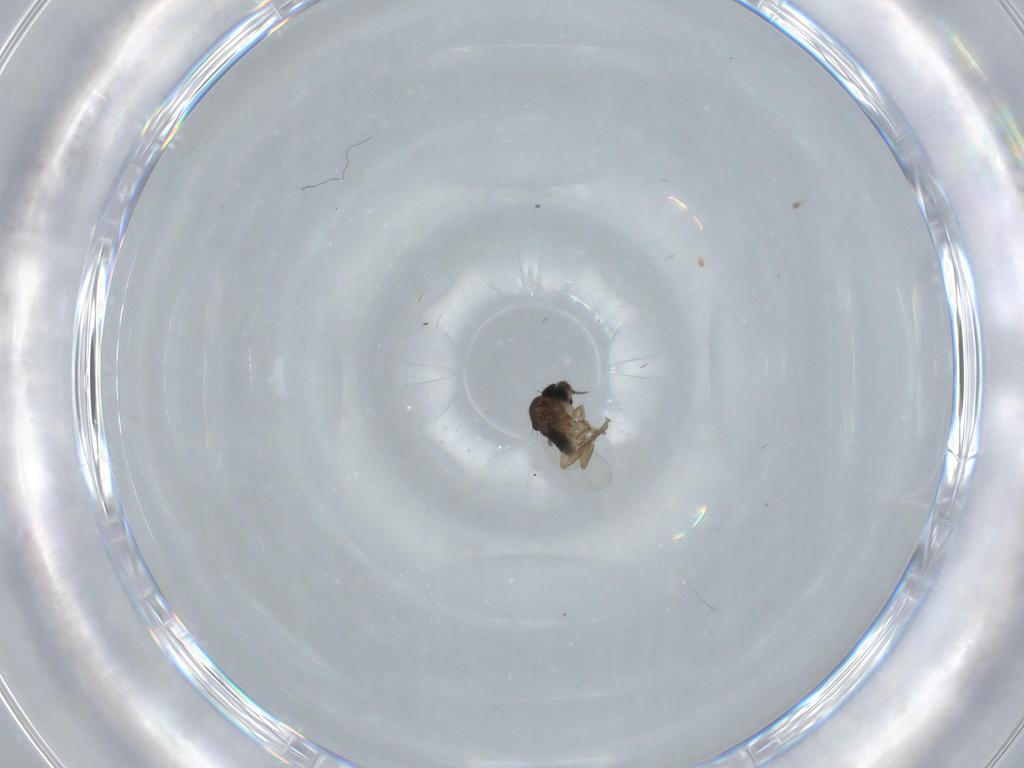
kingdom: Animalia
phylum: Arthropoda
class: Insecta
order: Diptera
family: Phoridae
